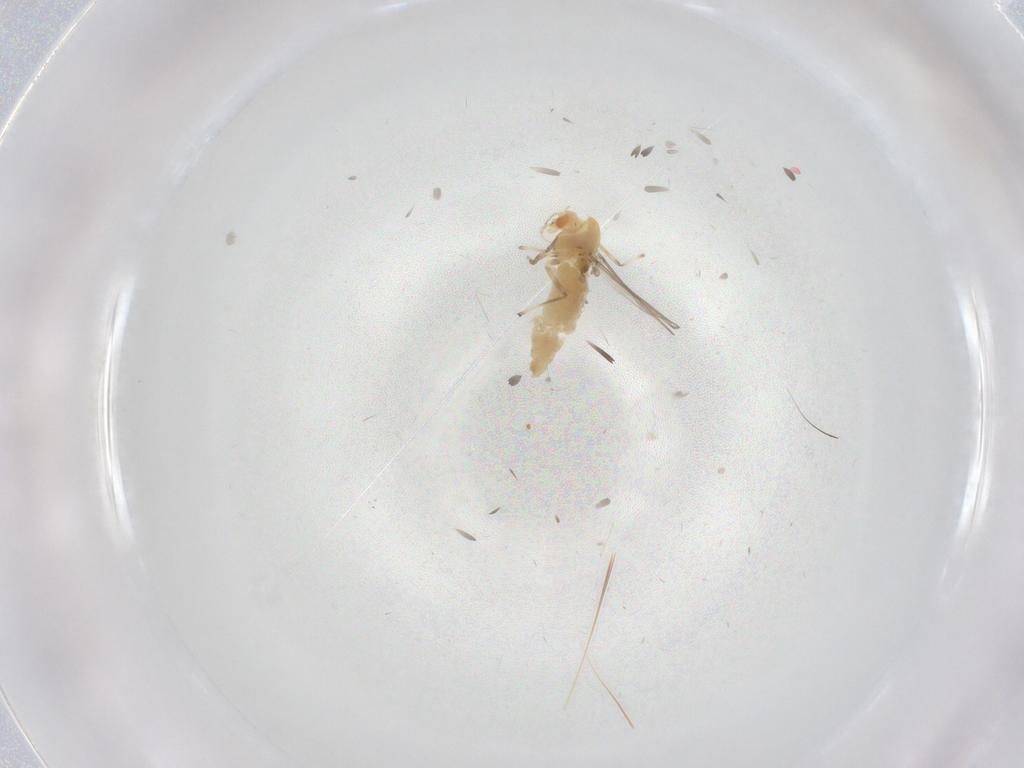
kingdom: Animalia
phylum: Arthropoda
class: Insecta
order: Diptera
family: Chironomidae
